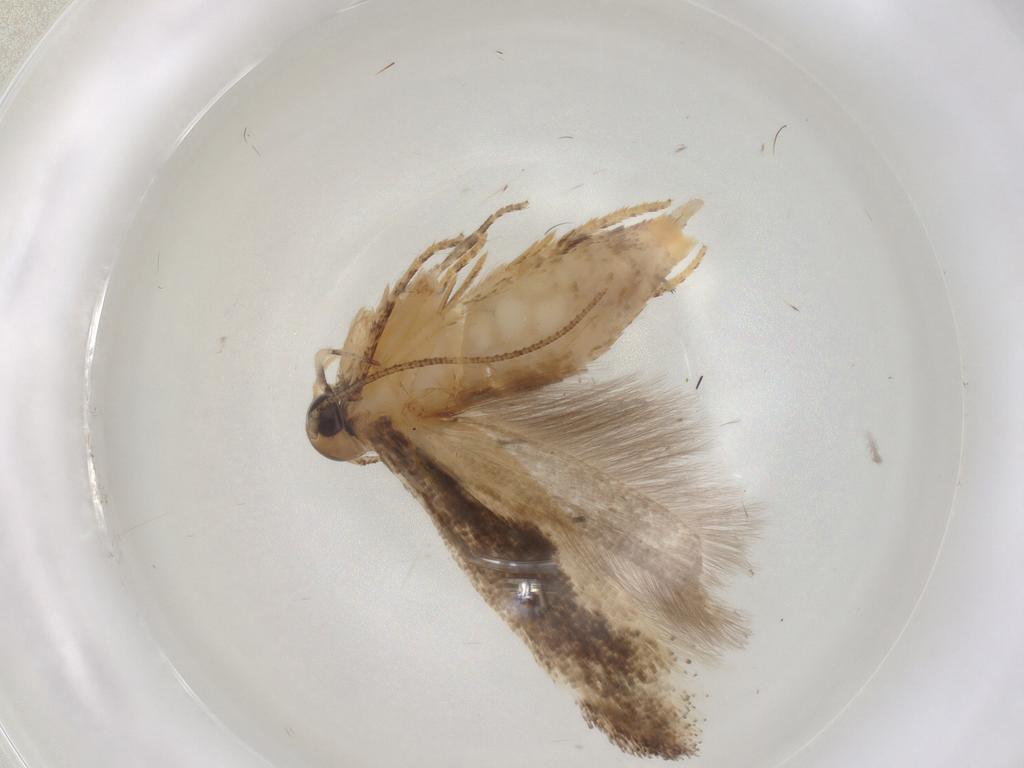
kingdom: Animalia
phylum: Arthropoda
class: Insecta
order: Lepidoptera
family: Gelechiidae
